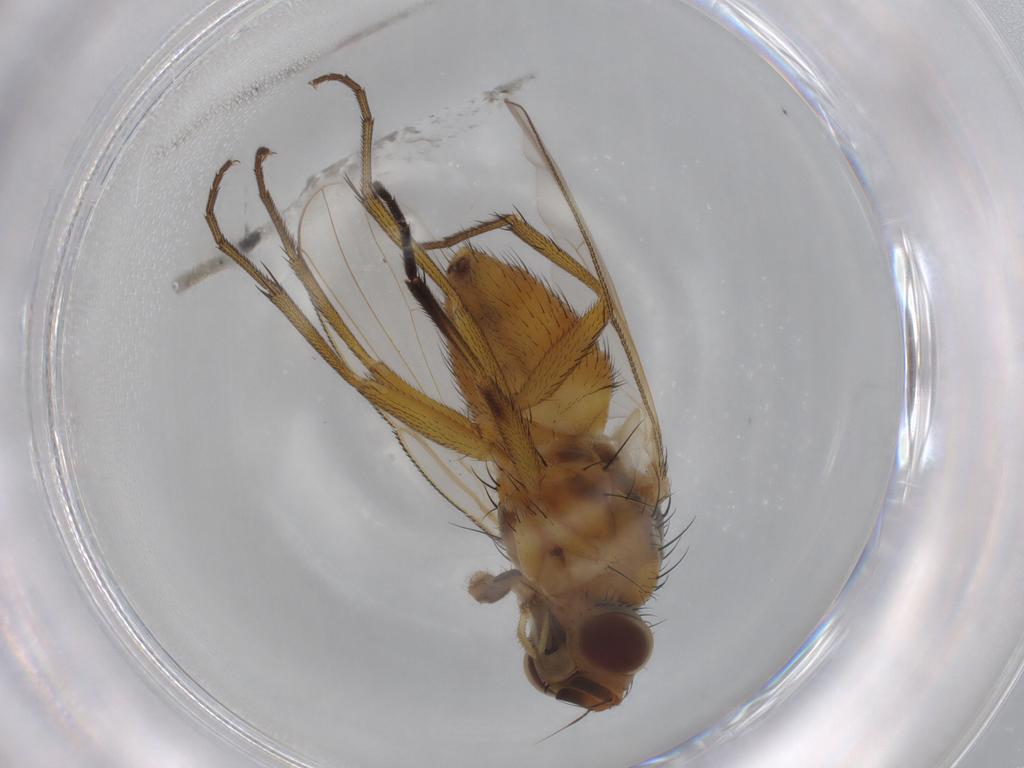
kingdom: Animalia
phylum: Arthropoda
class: Insecta
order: Diptera
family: Muscidae
